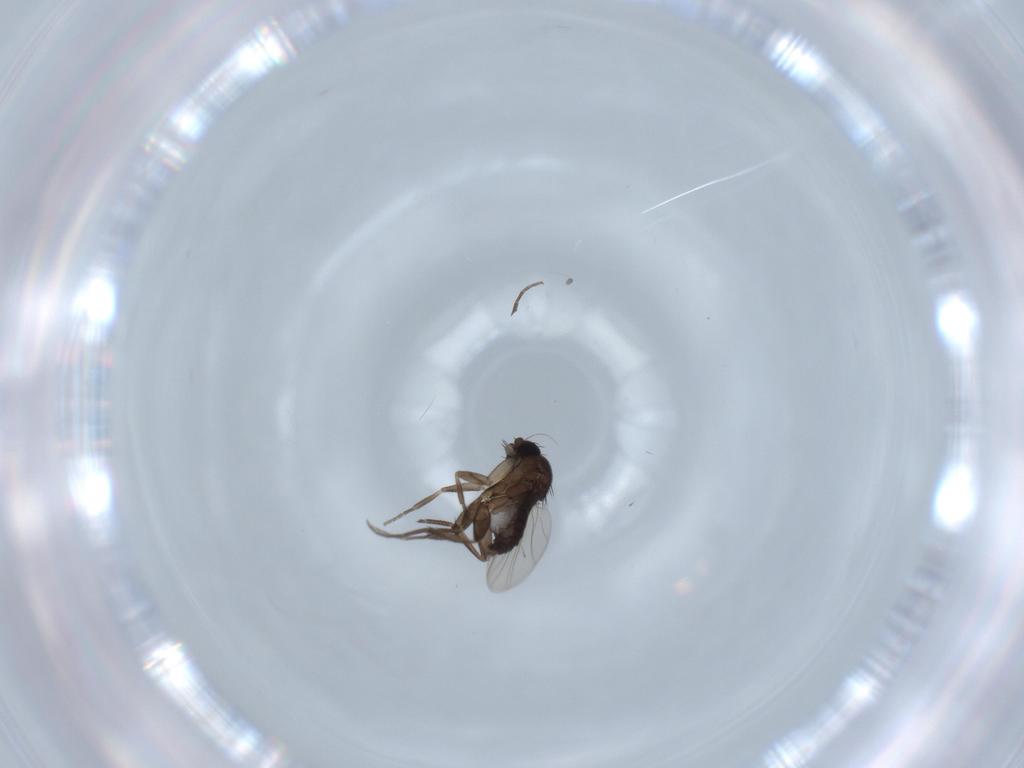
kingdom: Animalia
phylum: Arthropoda
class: Insecta
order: Diptera
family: Phoridae
